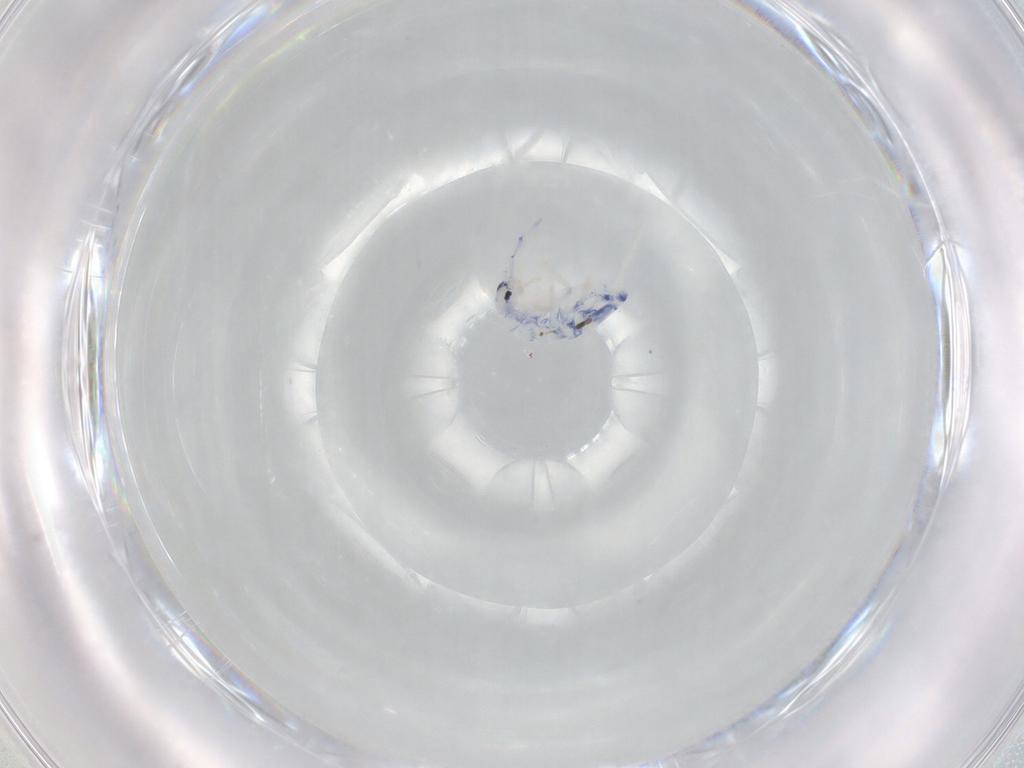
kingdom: Animalia
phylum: Arthropoda
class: Collembola
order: Entomobryomorpha
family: Entomobryidae
